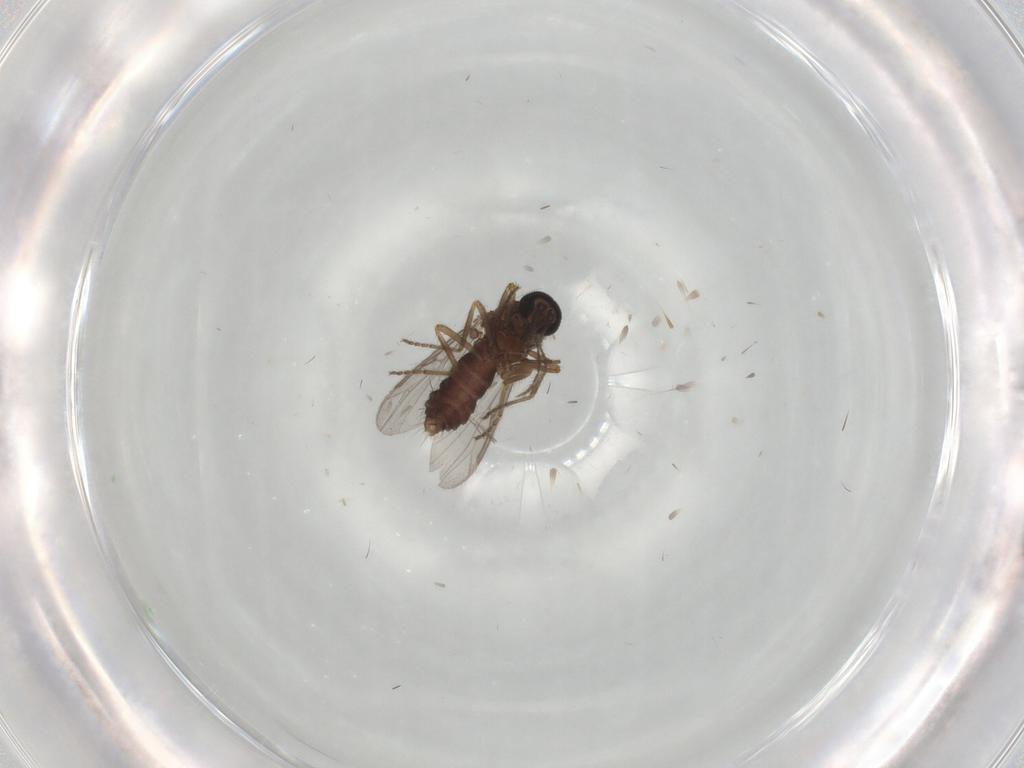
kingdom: Animalia
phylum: Arthropoda
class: Insecta
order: Diptera
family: Ceratopogonidae
